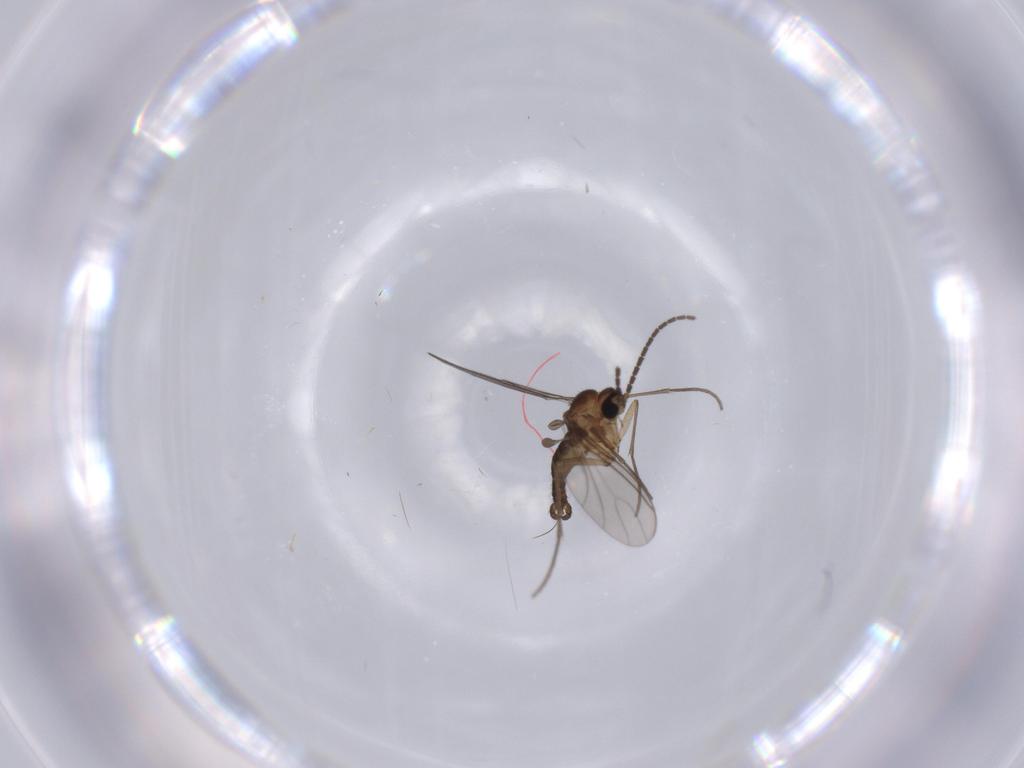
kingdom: Animalia
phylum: Arthropoda
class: Insecta
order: Diptera
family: Sciaridae
